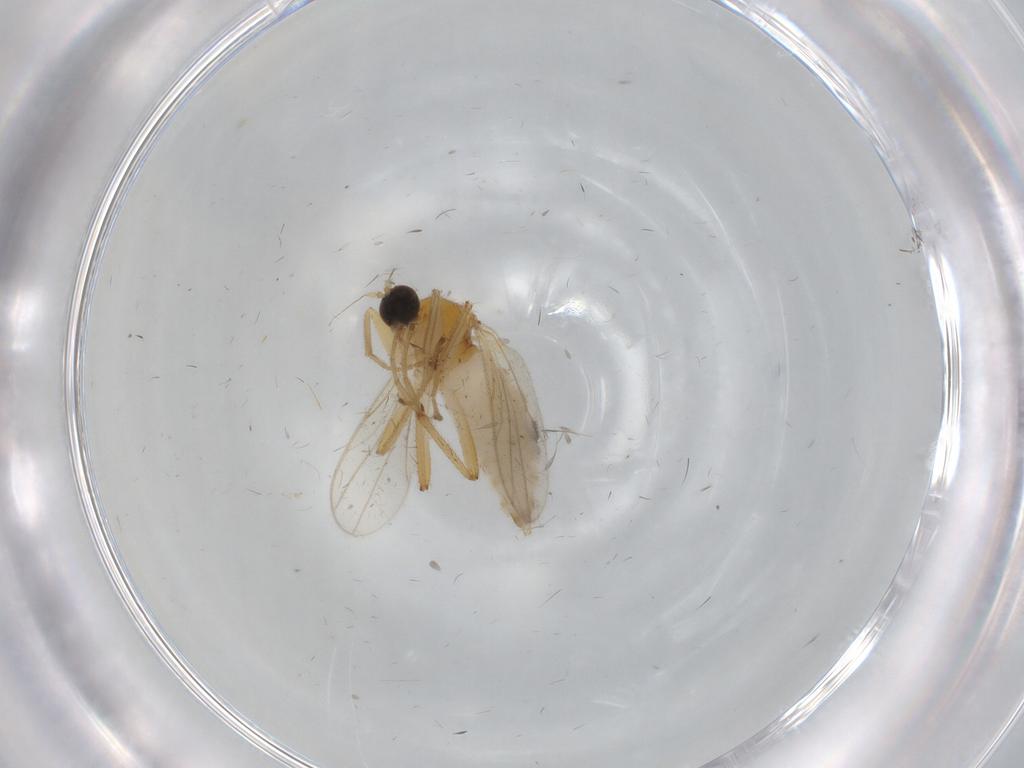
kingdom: Animalia
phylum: Arthropoda
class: Insecta
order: Diptera
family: Hybotidae
